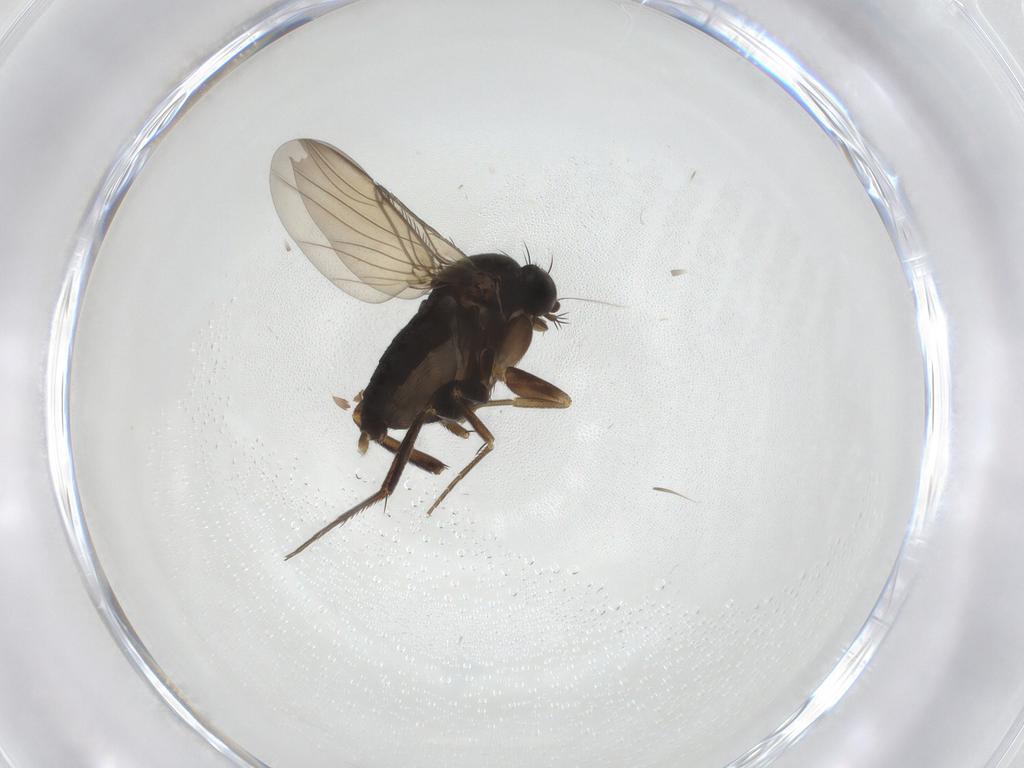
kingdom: Animalia
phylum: Arthropoda
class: Insecta
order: Diptera
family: Phoridae
